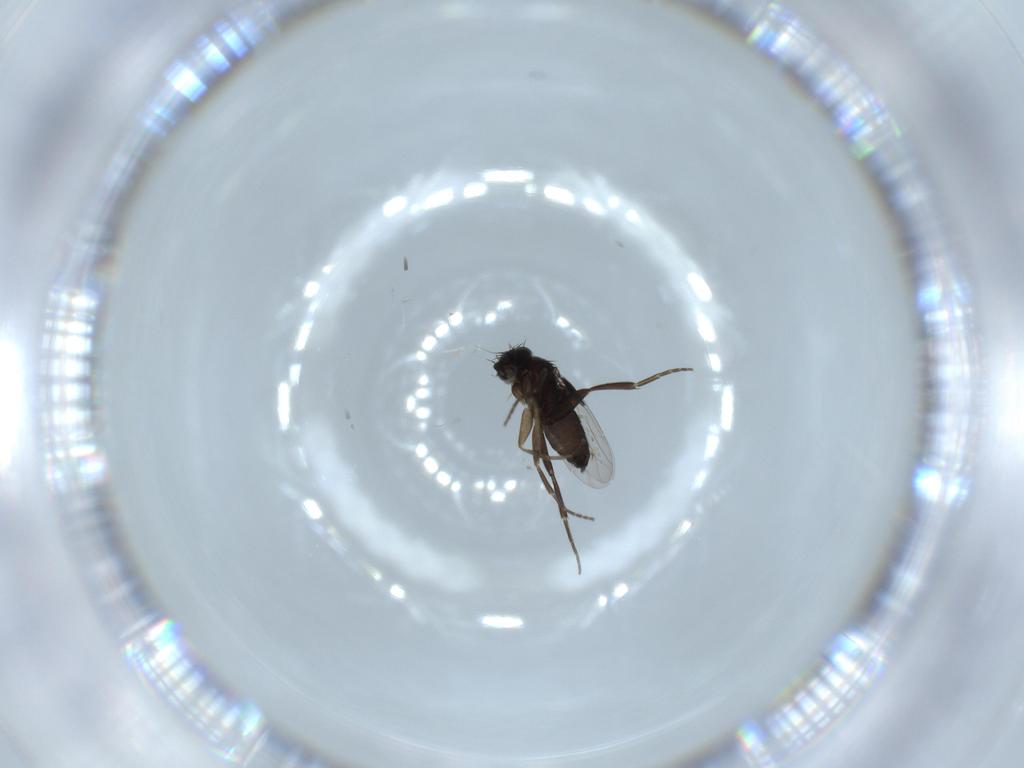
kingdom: Animalia
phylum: Arthropoda
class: Insecta
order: Diptera
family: Phoridae
